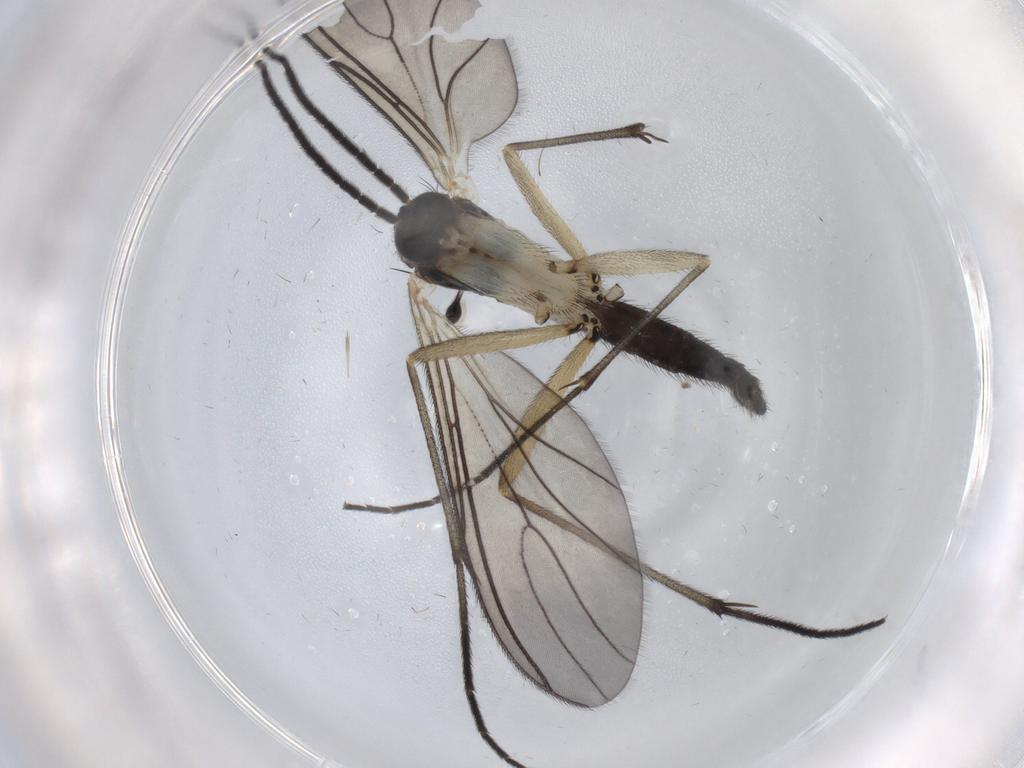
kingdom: Animalia
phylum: Arthropoda
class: Insecta
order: Diptera
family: Sciaridae
